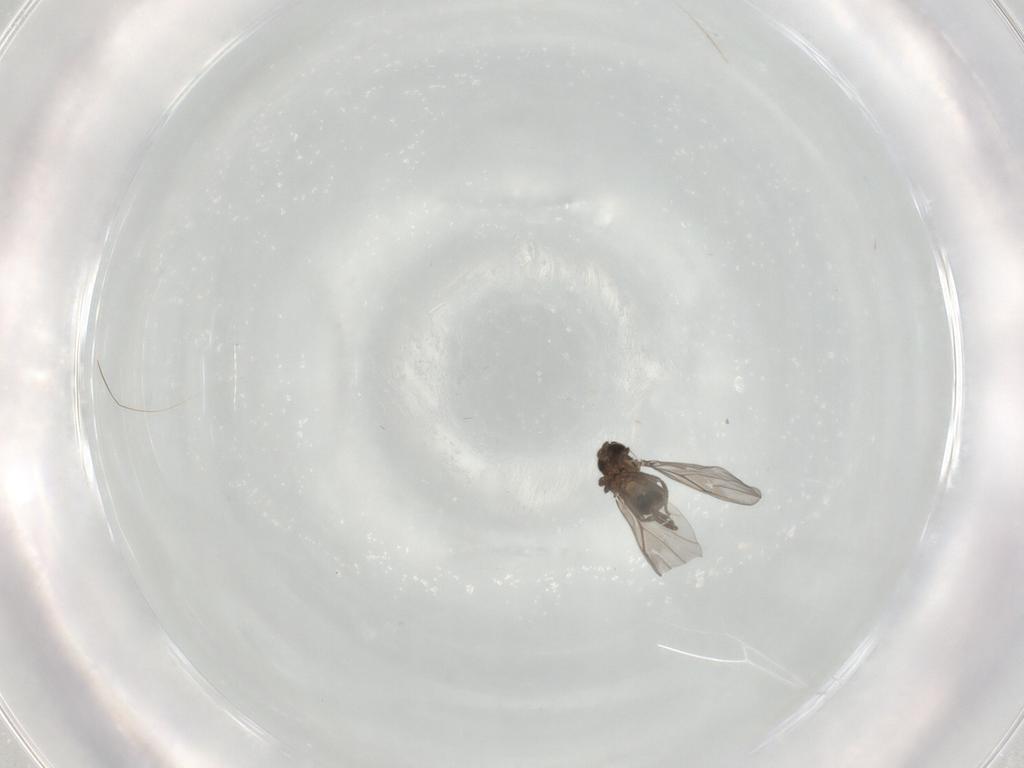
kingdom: Animalia
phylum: Arthropoda
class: Insecta
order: Diptera
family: Cecidomyiidae
